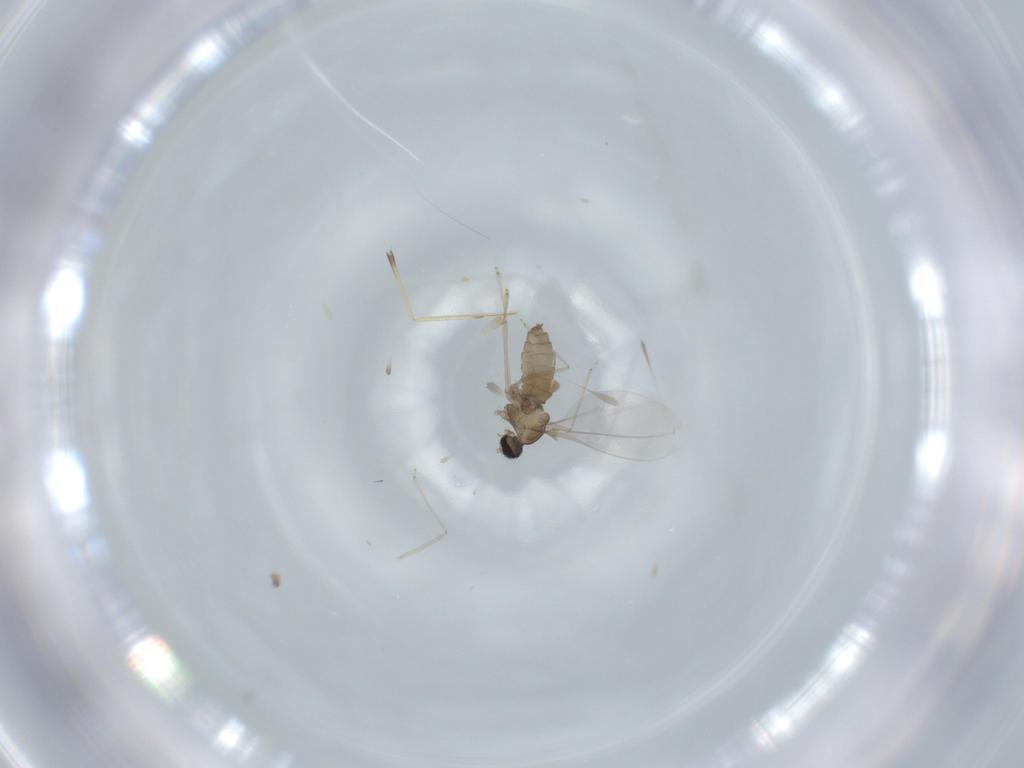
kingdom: Animalia
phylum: Arthropoda
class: Insecta
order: Diptera
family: Cecidomyiidae
